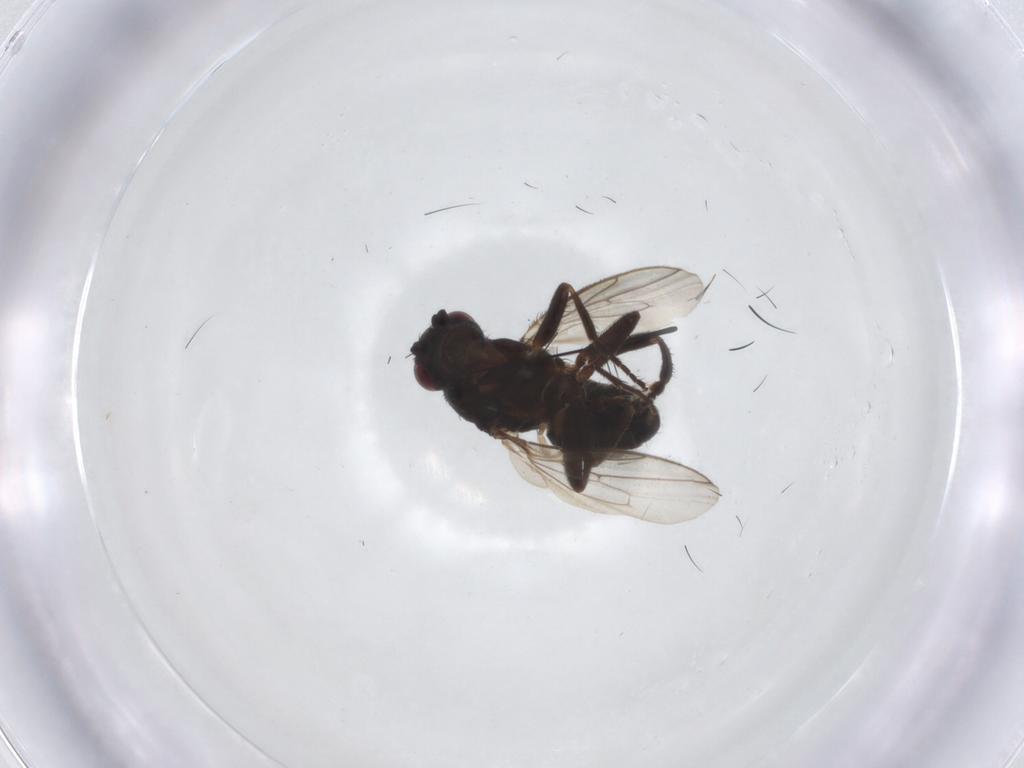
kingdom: Animalia
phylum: Arthropoda
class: Insecta
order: Diptera
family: Sphaeroceridae
